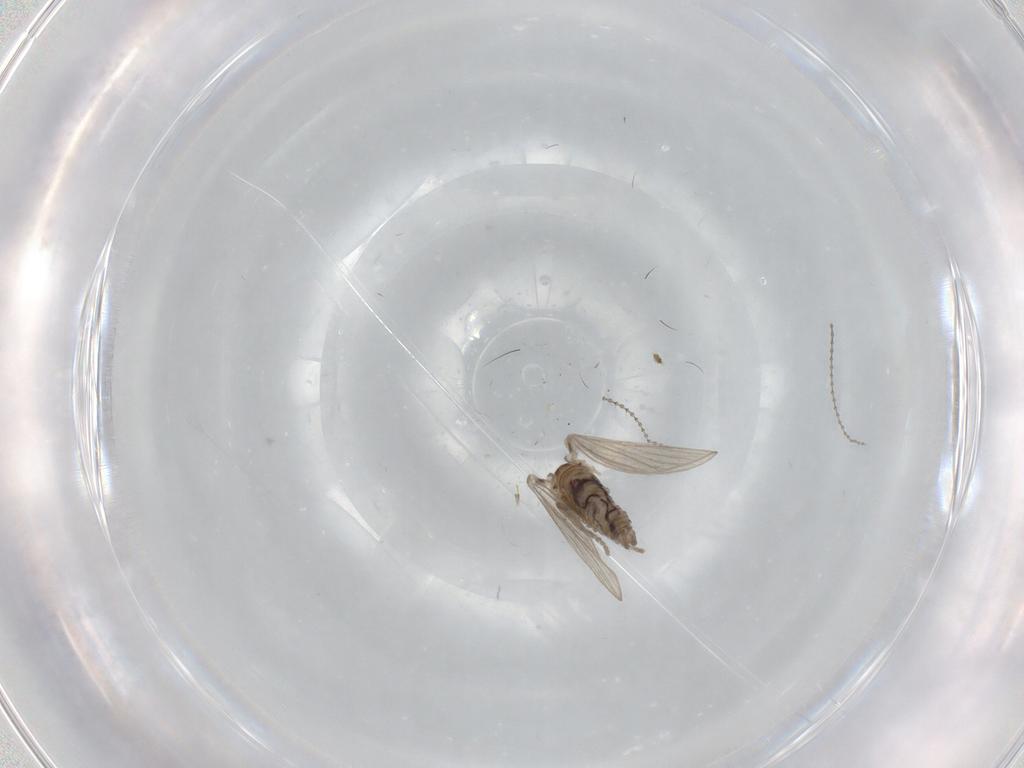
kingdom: Animalia
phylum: Arthropoda
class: Insecta
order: Diptera
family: Psychodidae
